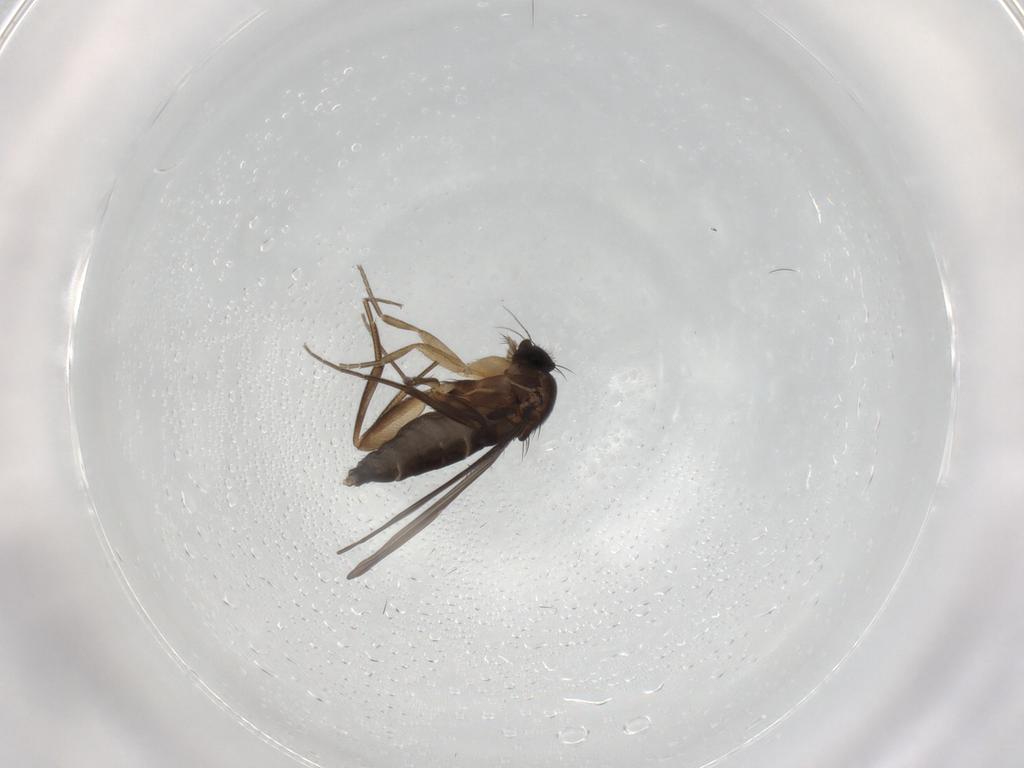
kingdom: Animalia
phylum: Arthropoda
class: Insecta
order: Diptera
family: Phoridae
